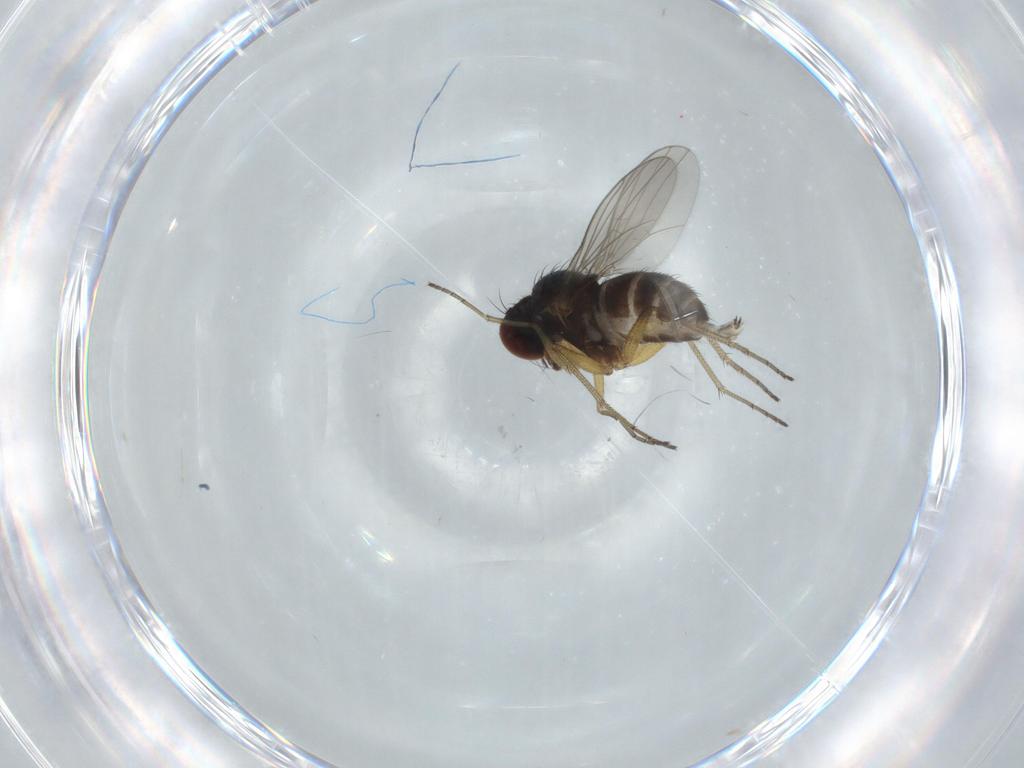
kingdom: Animalia
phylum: Arthropoda
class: Insecta
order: Diptera
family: Dolichopodidae
